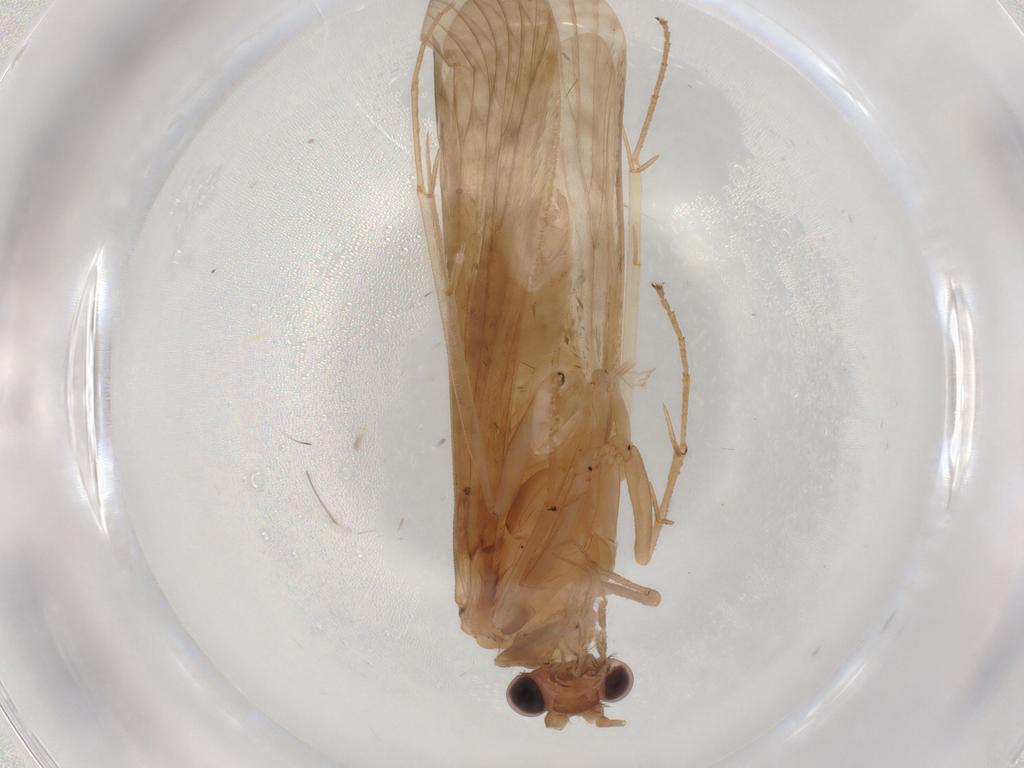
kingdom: Animalia
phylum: Arthropoda
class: Insecta
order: Trichoptera
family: Hydropsychidae
